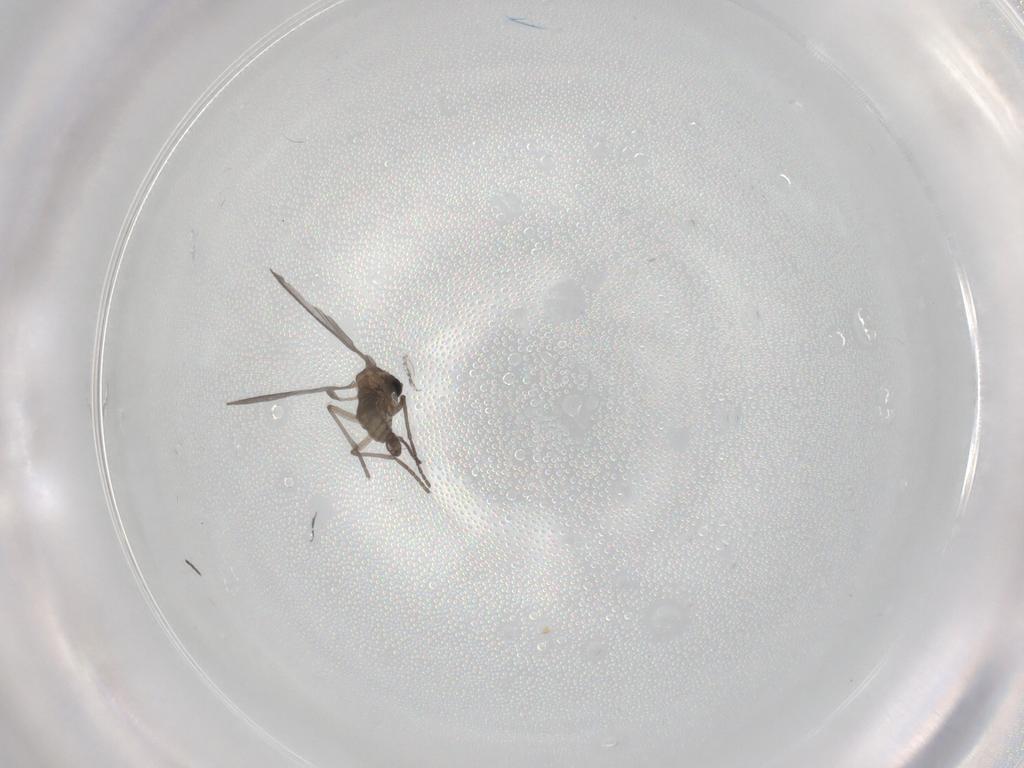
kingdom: Animalia
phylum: Arthropoda
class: Insecta
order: Diptera
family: Sciaridae
